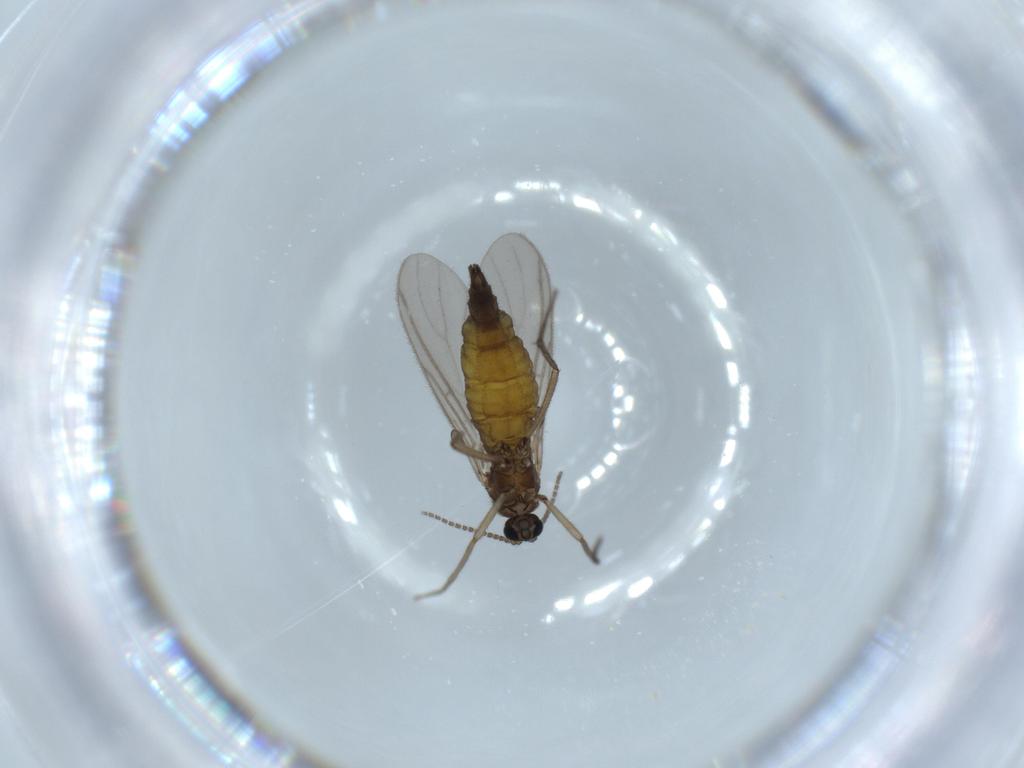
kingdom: Animalia
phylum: Arthropoda
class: Insecta
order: Diptera
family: Sciaridae
